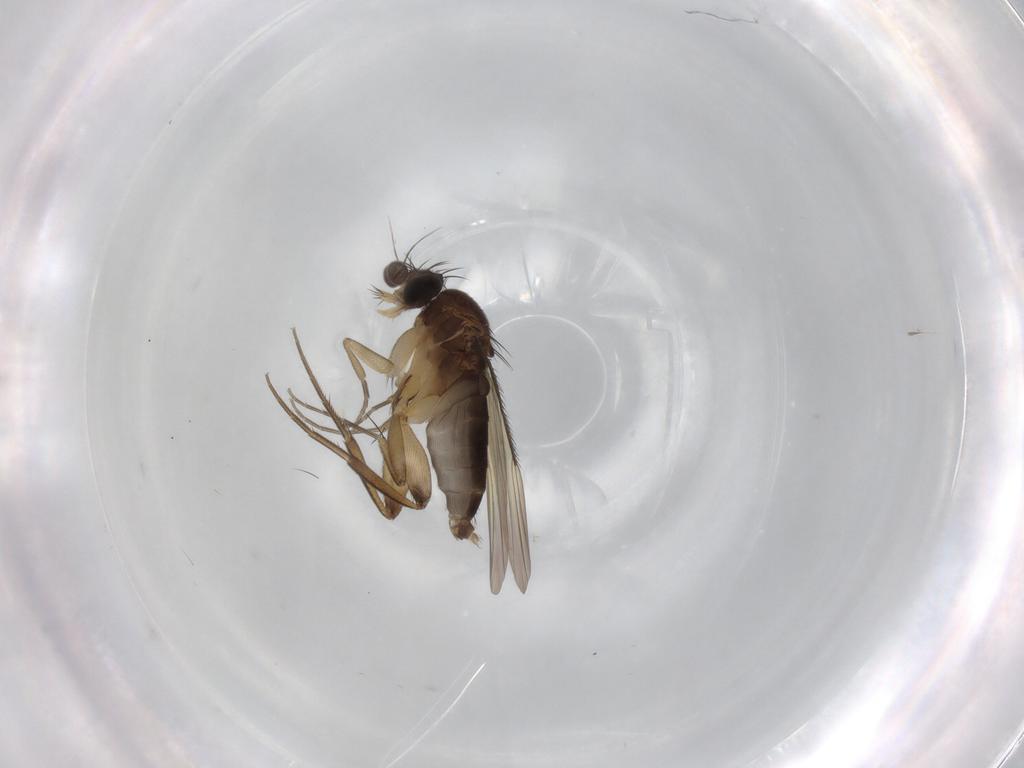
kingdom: Animalia
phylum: Arthropoda
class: Insecta
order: Diptera
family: Phoridae
